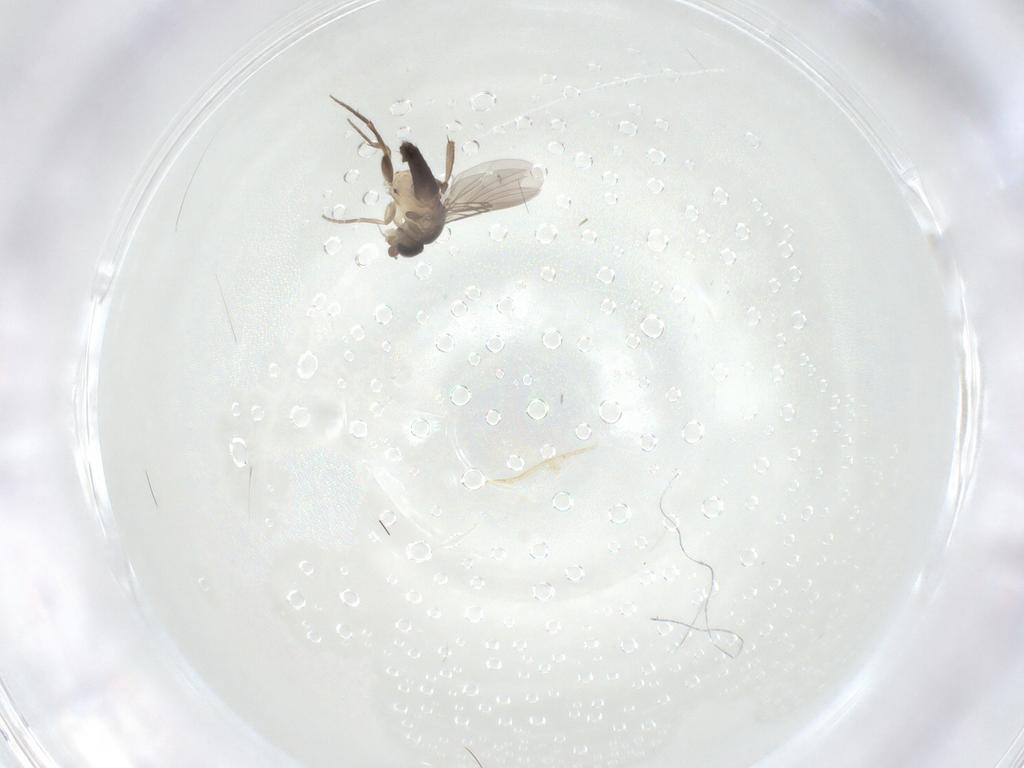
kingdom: Animalia
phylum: Arthropoda
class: Insecta
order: Diptera
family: Phoridae
